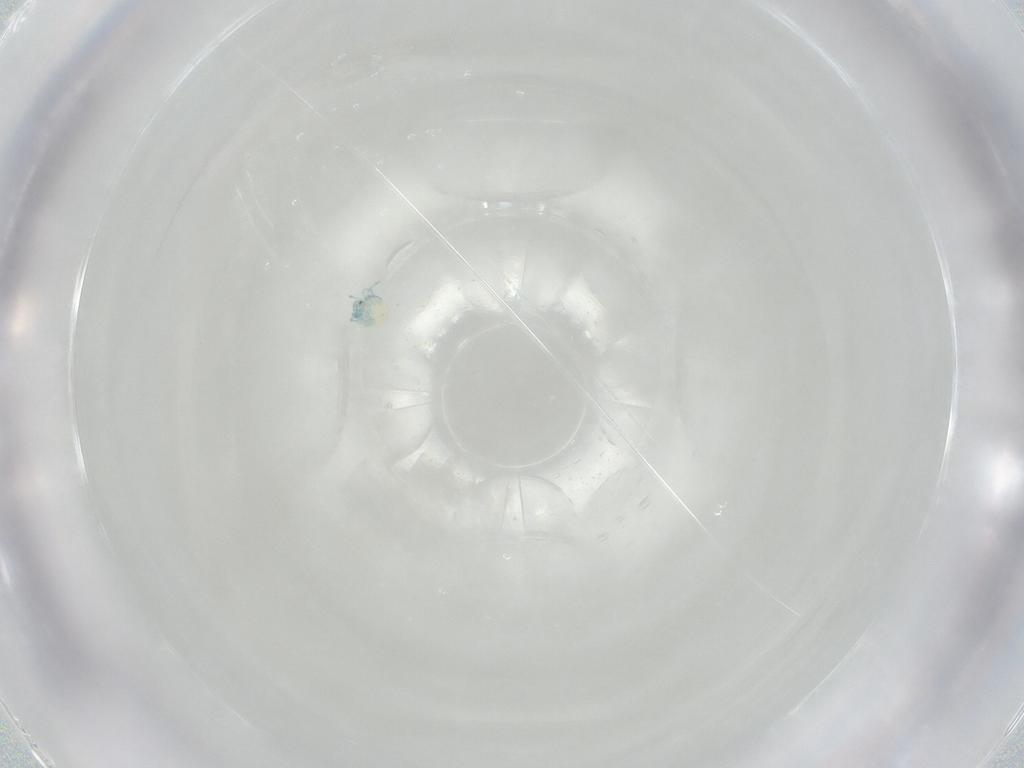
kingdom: Animalia
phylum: Arthropoda
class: Arachnida
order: Trombidiformes
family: Arrenuridae
